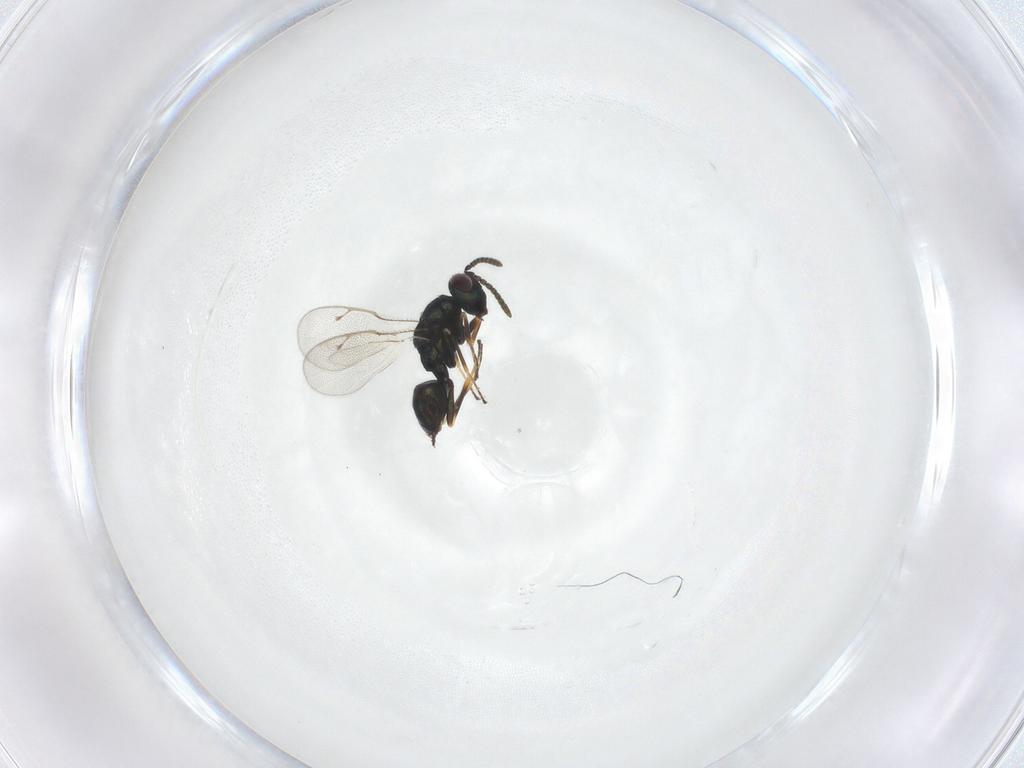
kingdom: Animalia
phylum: Arthropoda
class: Insecta
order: Hymenoptera
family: Pteromalidae
